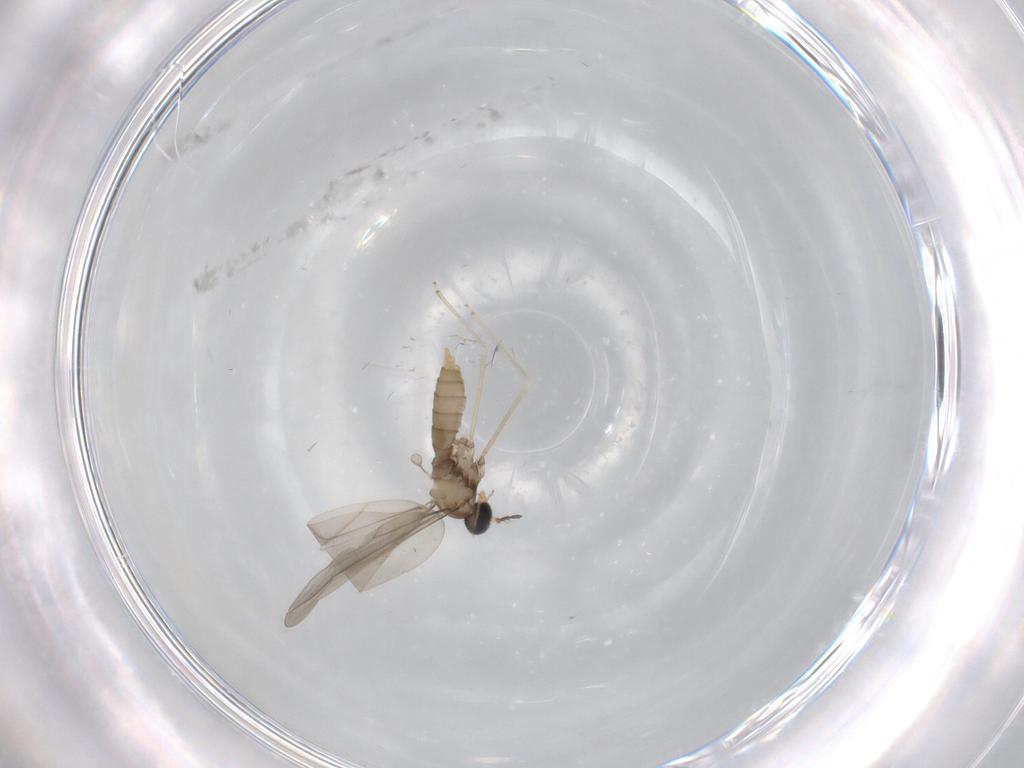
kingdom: Animalia
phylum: Arthropoda
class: Insecta
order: Diptera
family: Cecidomyiidae
